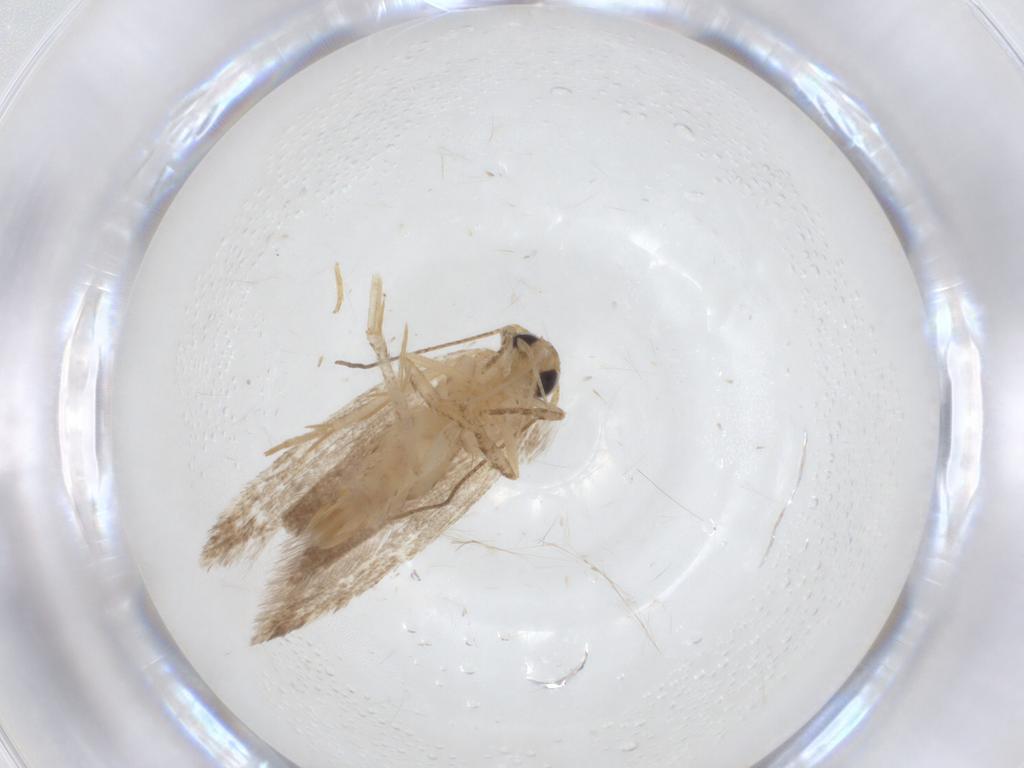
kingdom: Animalia
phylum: Arthropoda
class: Insecta
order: Lepidoptera
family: Gelechiidae
